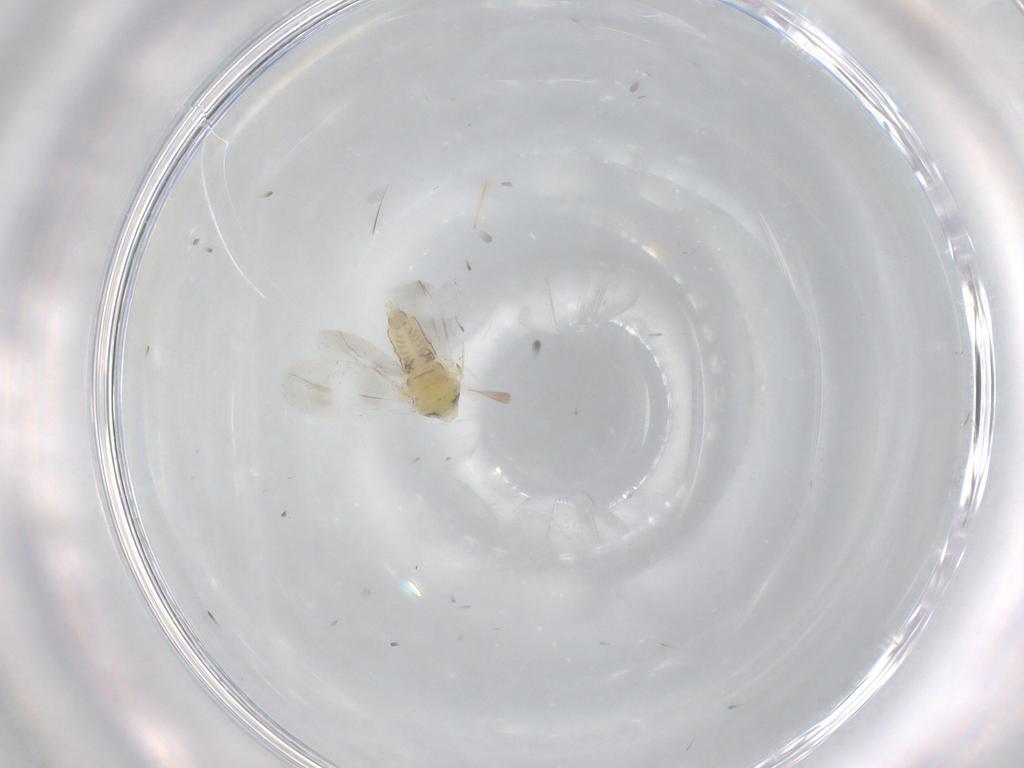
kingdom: Animalia
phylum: Arthropoda
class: Insecta
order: Hemiptera
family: Aleyrodidae
